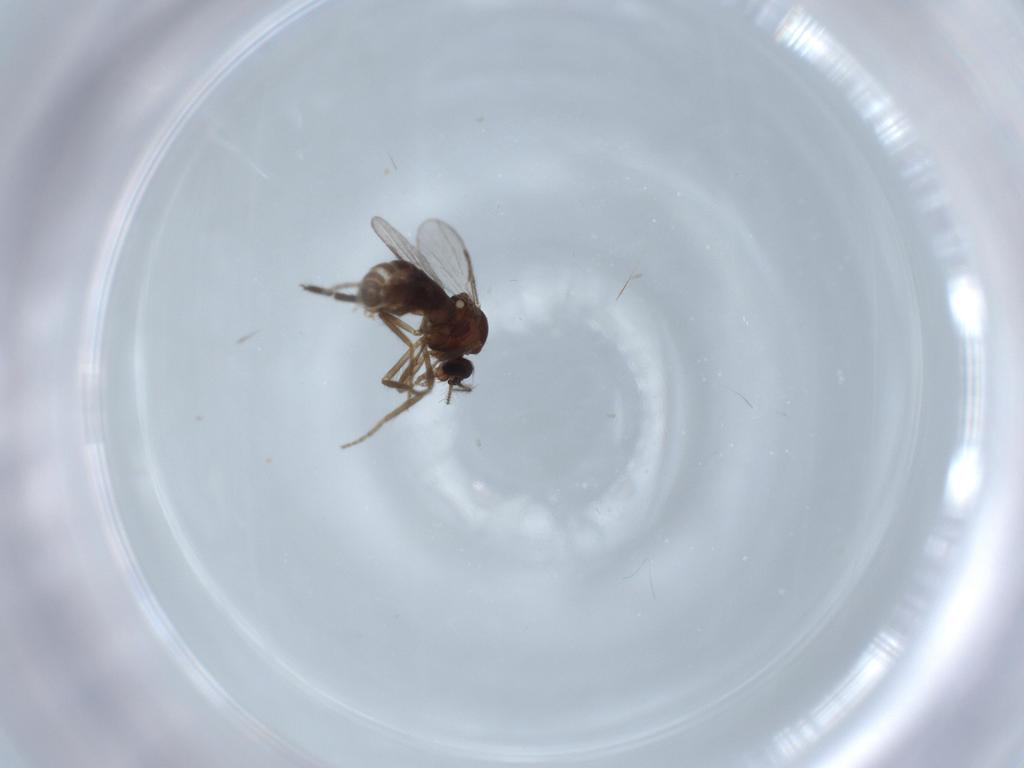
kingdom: Animalia
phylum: Arthropoda
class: Insecta
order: Diptera
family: Ceratopogonidae
